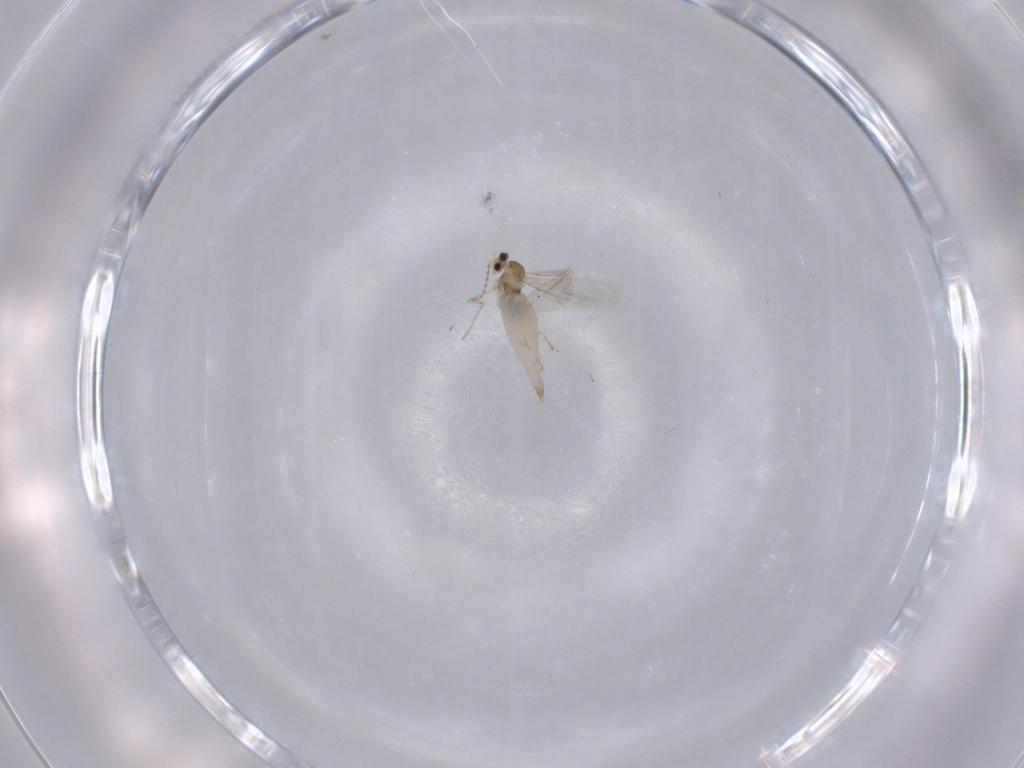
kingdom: Animalia
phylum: Arthropoda
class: Insecta
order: Diptera
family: Cecidomyiidae
